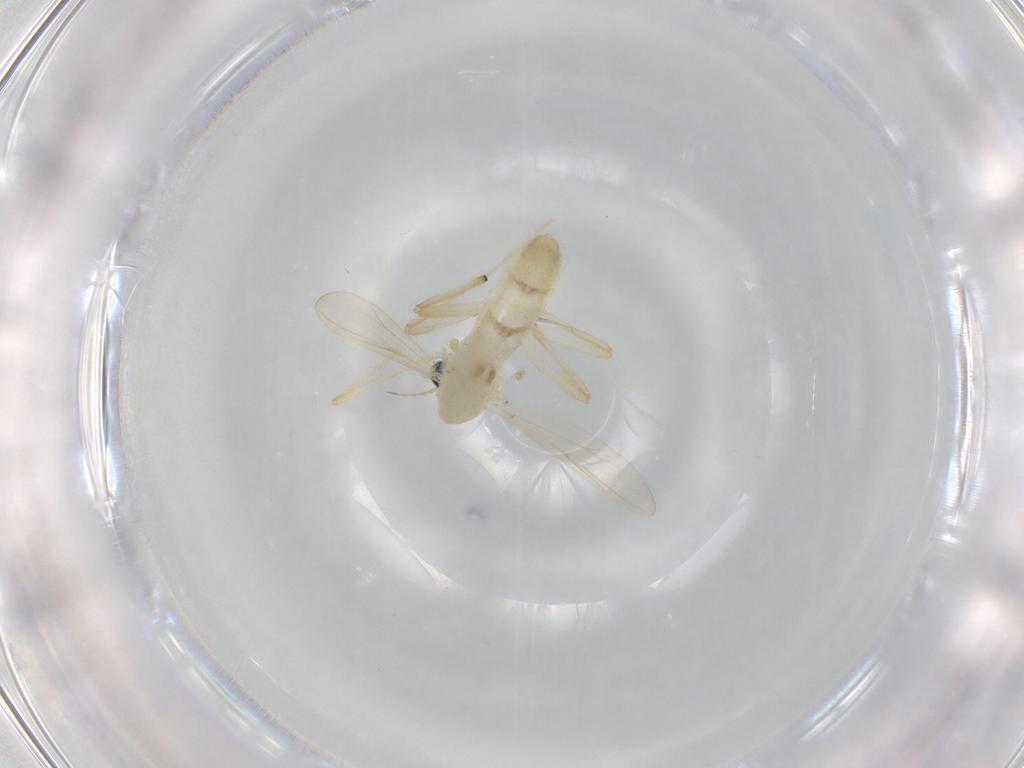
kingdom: Animalia
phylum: Arthropoda
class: Insecta
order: Diptera
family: Chironomidae
